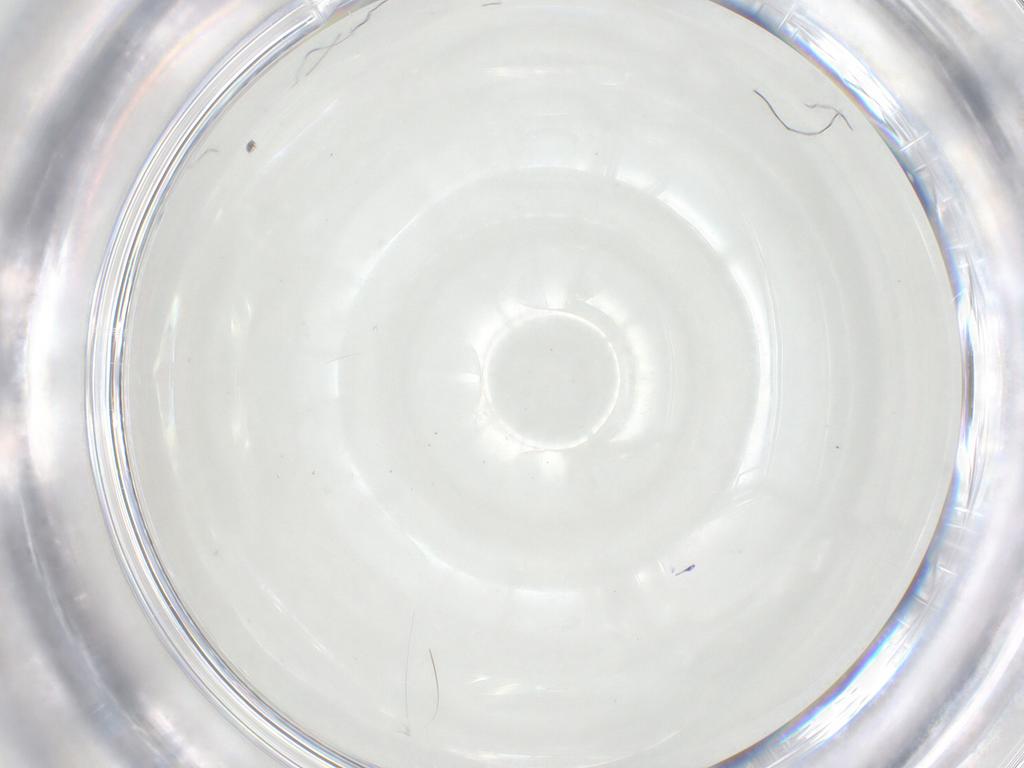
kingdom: Animalia
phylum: Arthropoda
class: Insecta
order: Diptera
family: Cecidomyiidae
